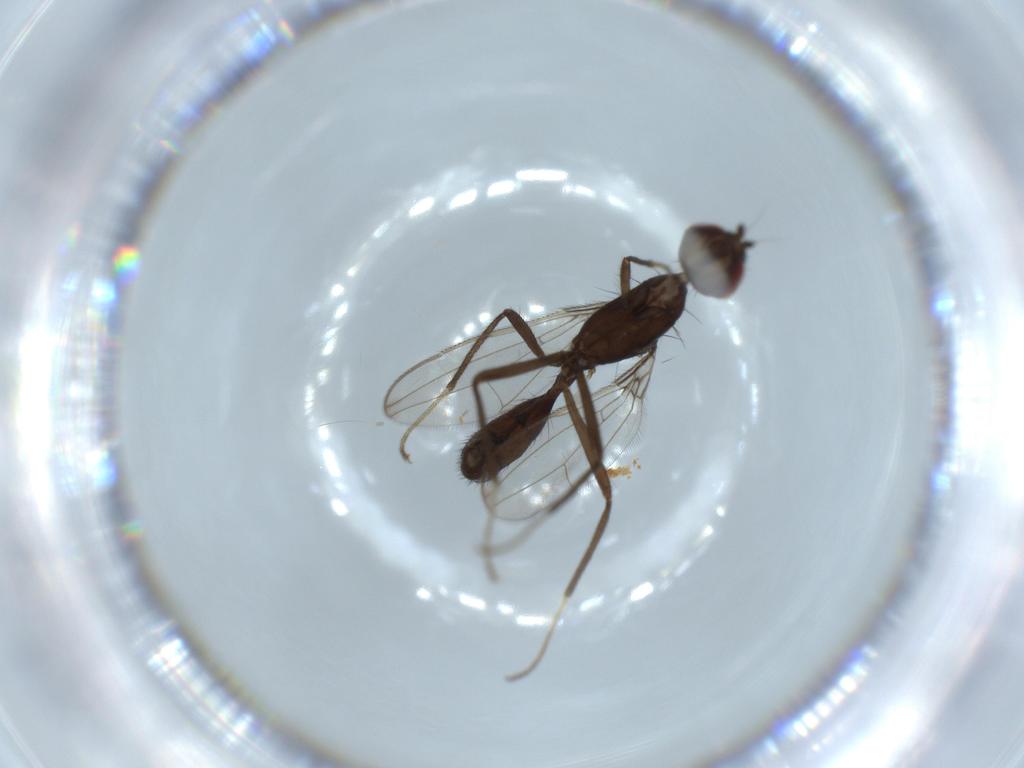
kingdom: Animalia
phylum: Arthropoda
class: Insecta
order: Diptera
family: Richardiidae
